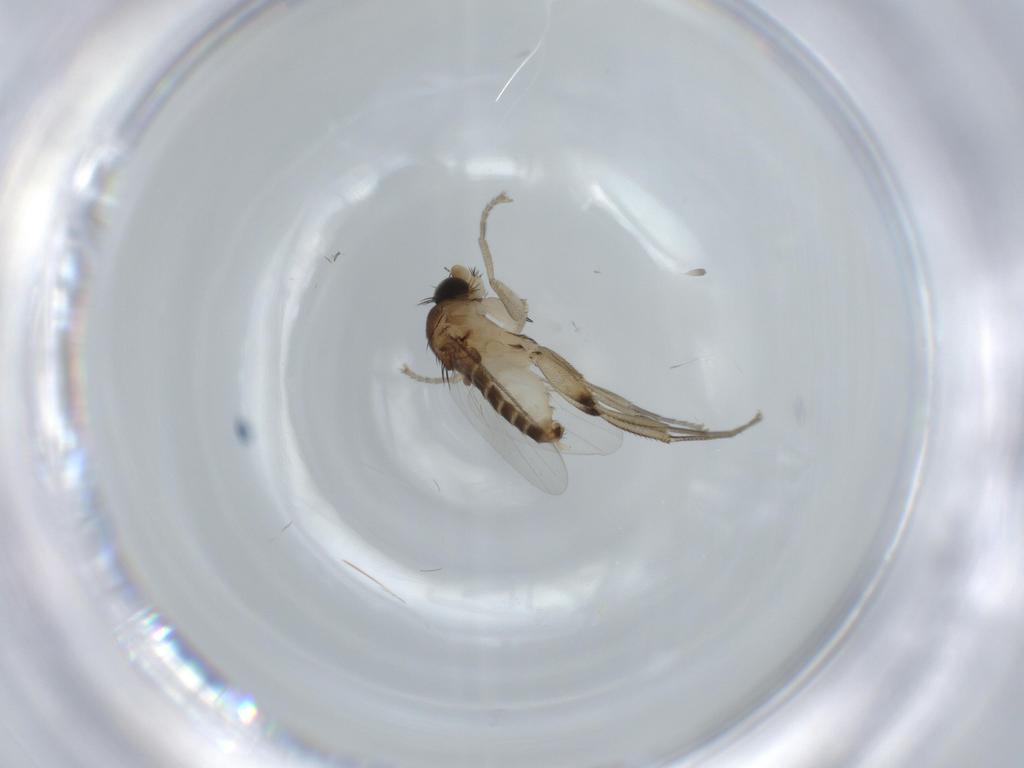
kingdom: Animalia
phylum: Arthropoda
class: Insecta
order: Diptera
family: Phoridae
